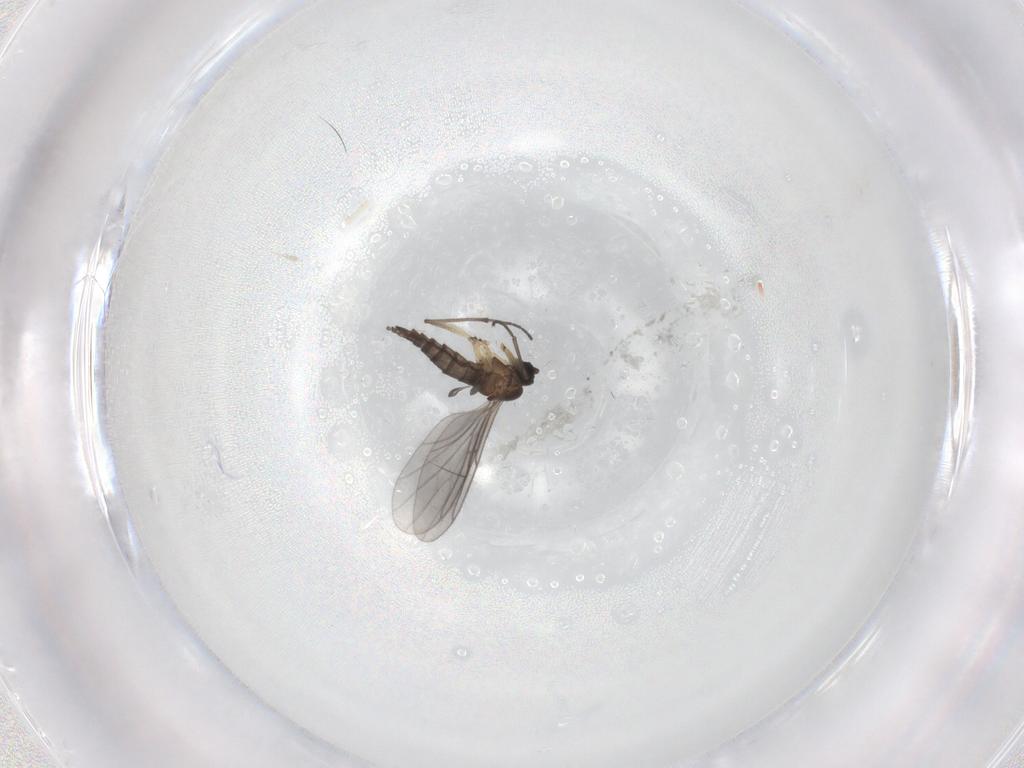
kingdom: Animalia
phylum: Arthropoda
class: Insecta
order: Diptera
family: Sciaridae
